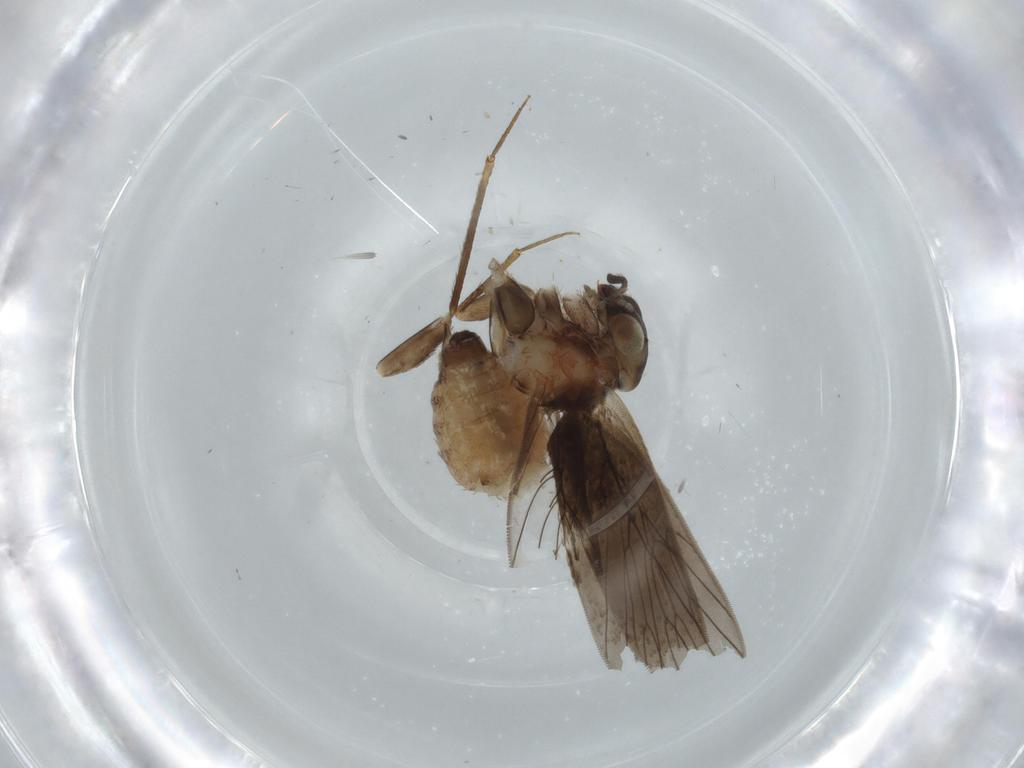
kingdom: Animalia
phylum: Arthropoda
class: Insecta
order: Psocodea
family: Lepidopsocidae
